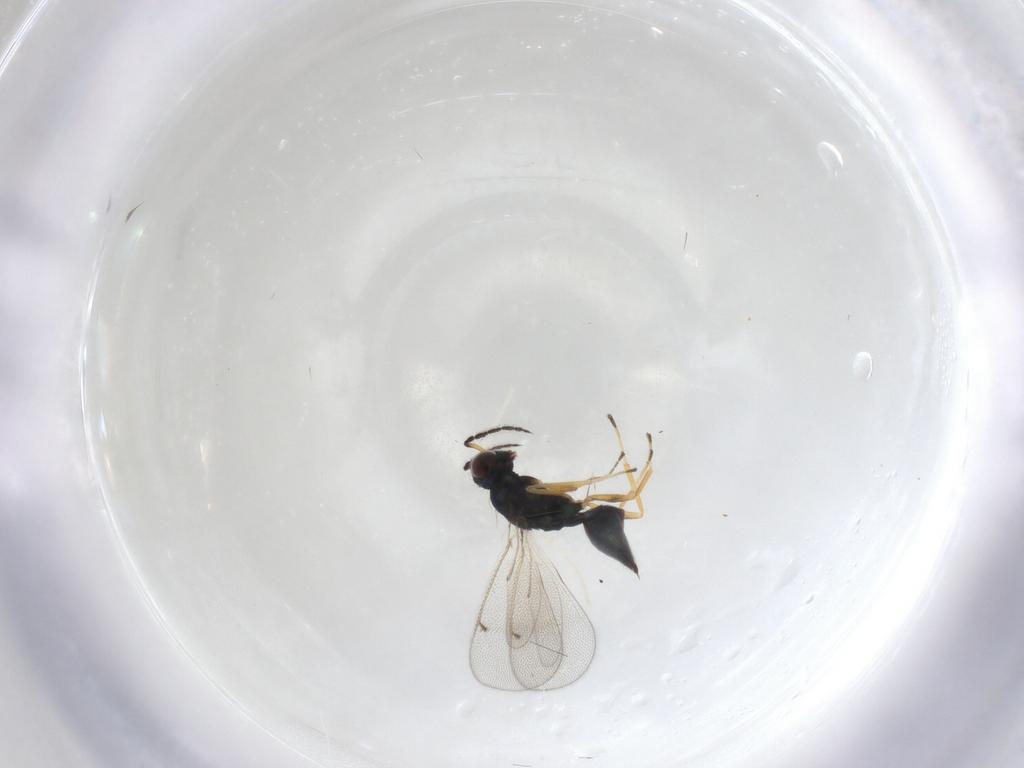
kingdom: Animalia
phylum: Arthropoda
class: Insecta
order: Hymenoptera
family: Eulophidae
